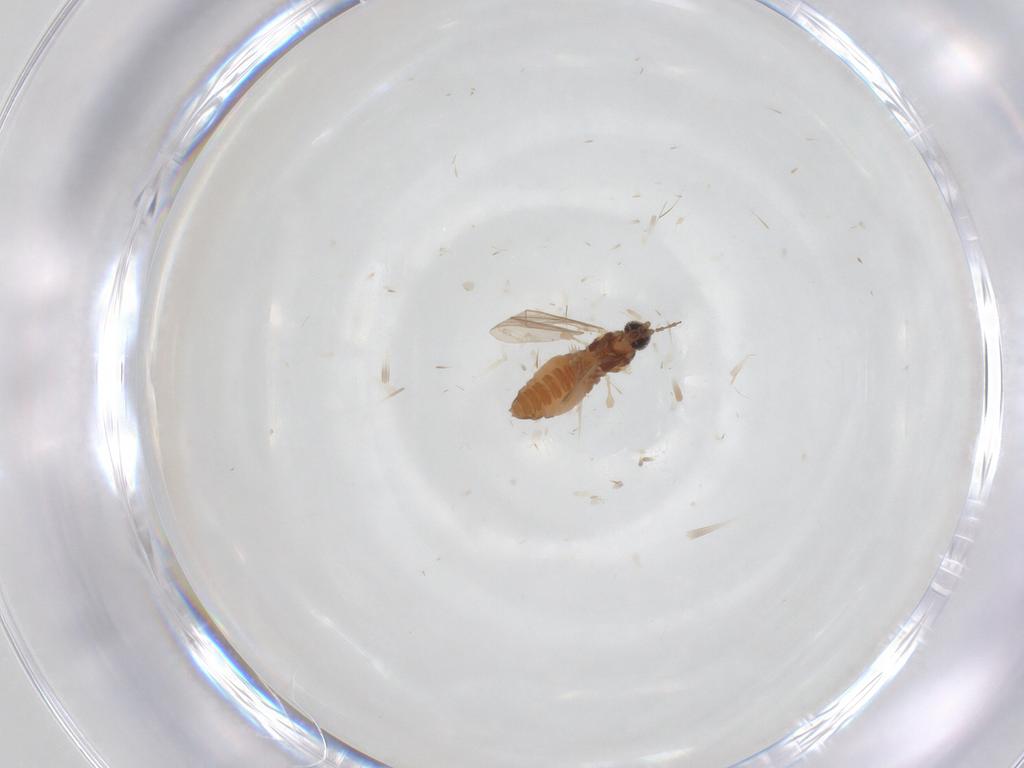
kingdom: Animalia
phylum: Arthropoda
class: Insecta
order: Diptera
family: Cecidomyiidae
